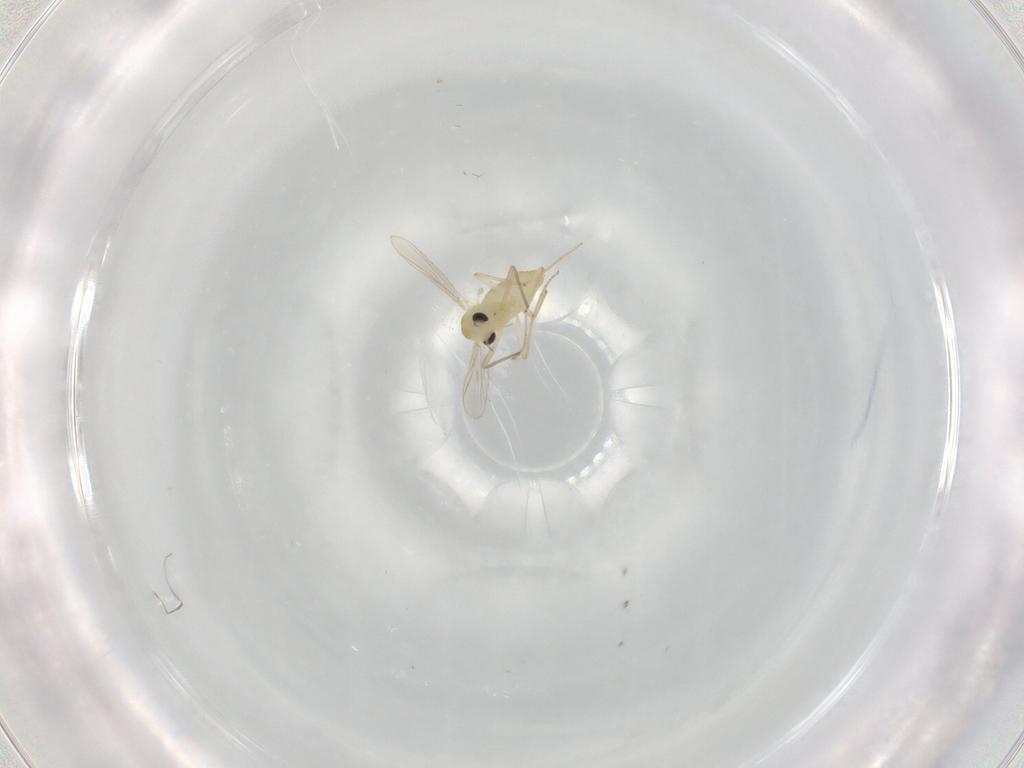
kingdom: Animalia
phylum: Arthropoda
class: Insecta
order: Diptera
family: Chironomidae
